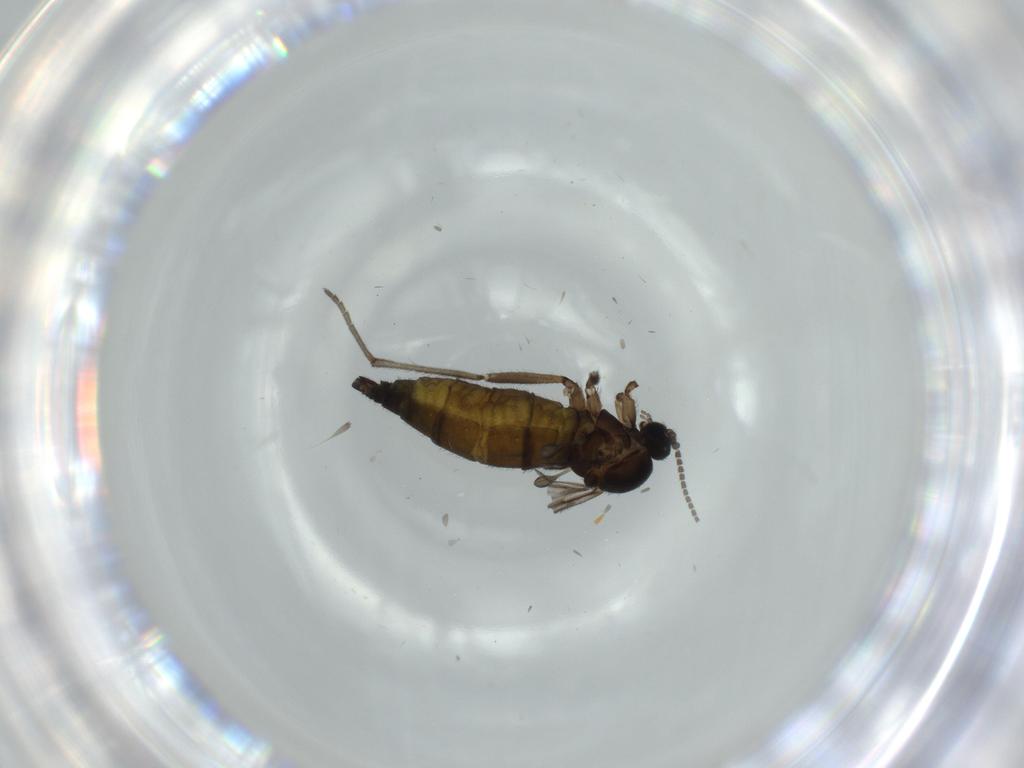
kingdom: Animalia
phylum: Arthropoda
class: Insecta
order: Diptera
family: Sciaridae
